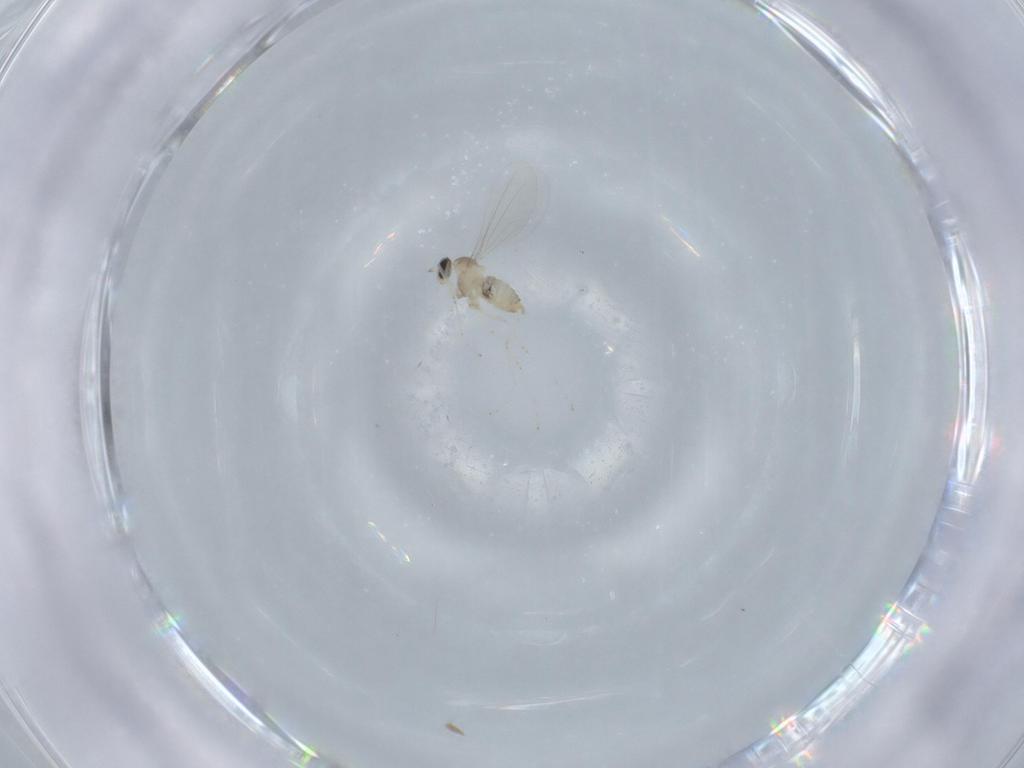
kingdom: Animalia
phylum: Arthropoda
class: Insecta
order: Diptera
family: Cecidomyiidae
